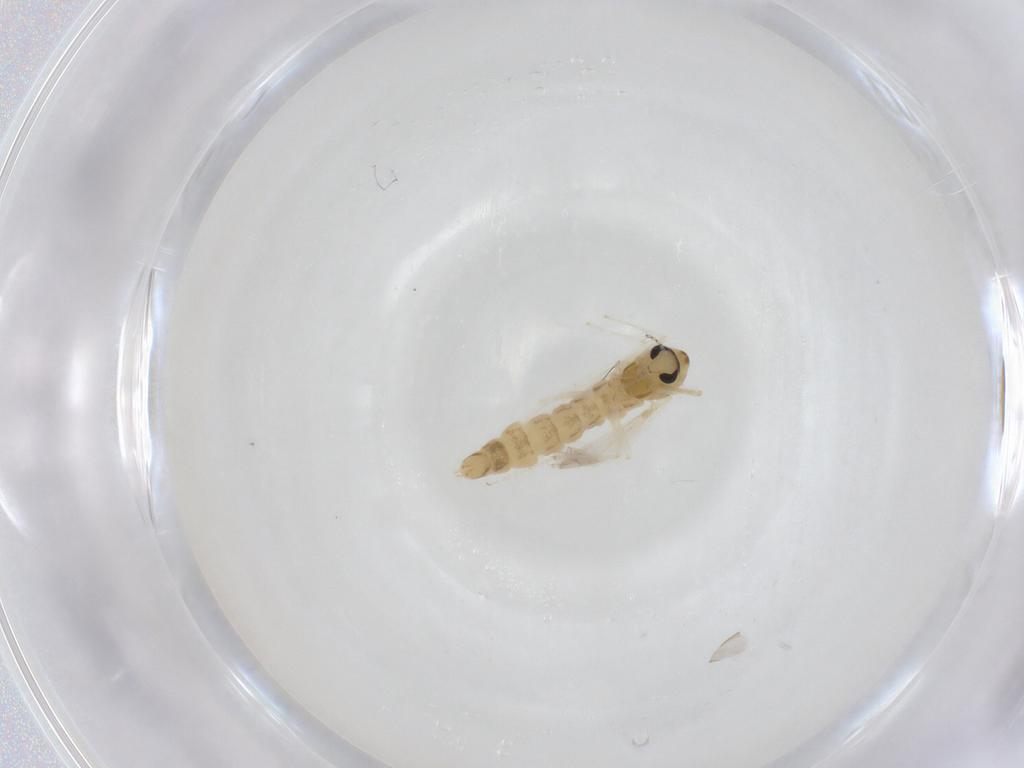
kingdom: Animalia
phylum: Arthropoda
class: Insecta
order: Diptera
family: Chironomidae
